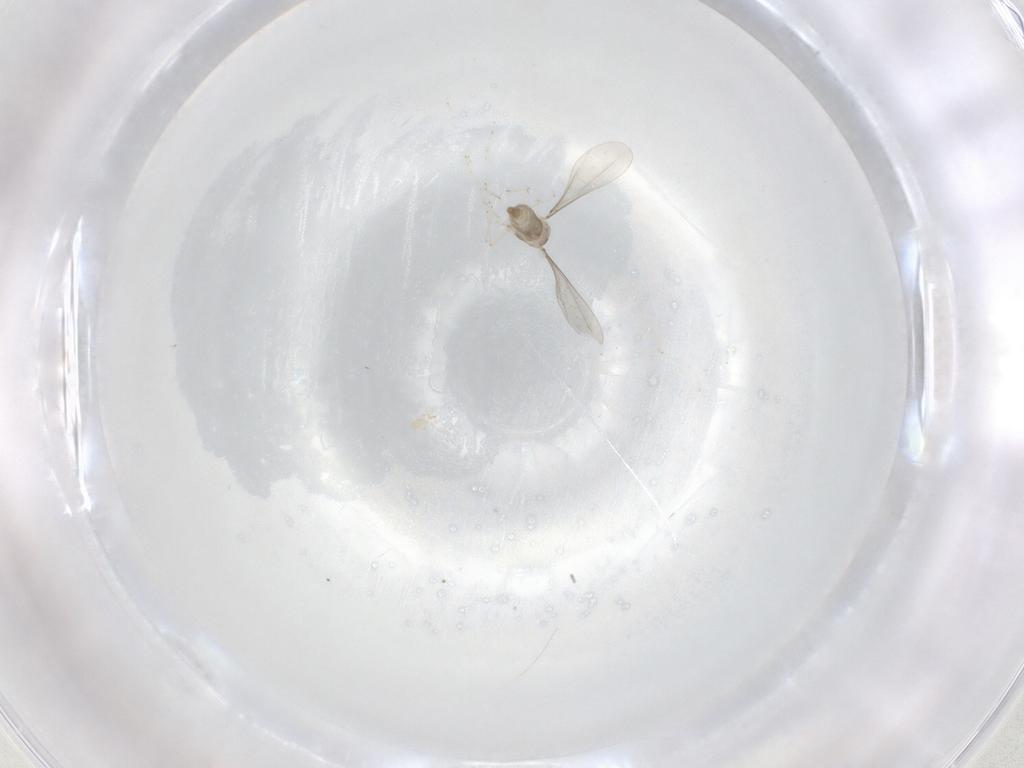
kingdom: Animalia
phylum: Arthropoda
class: Insecta
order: Diptera
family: Cecidomyiidae
